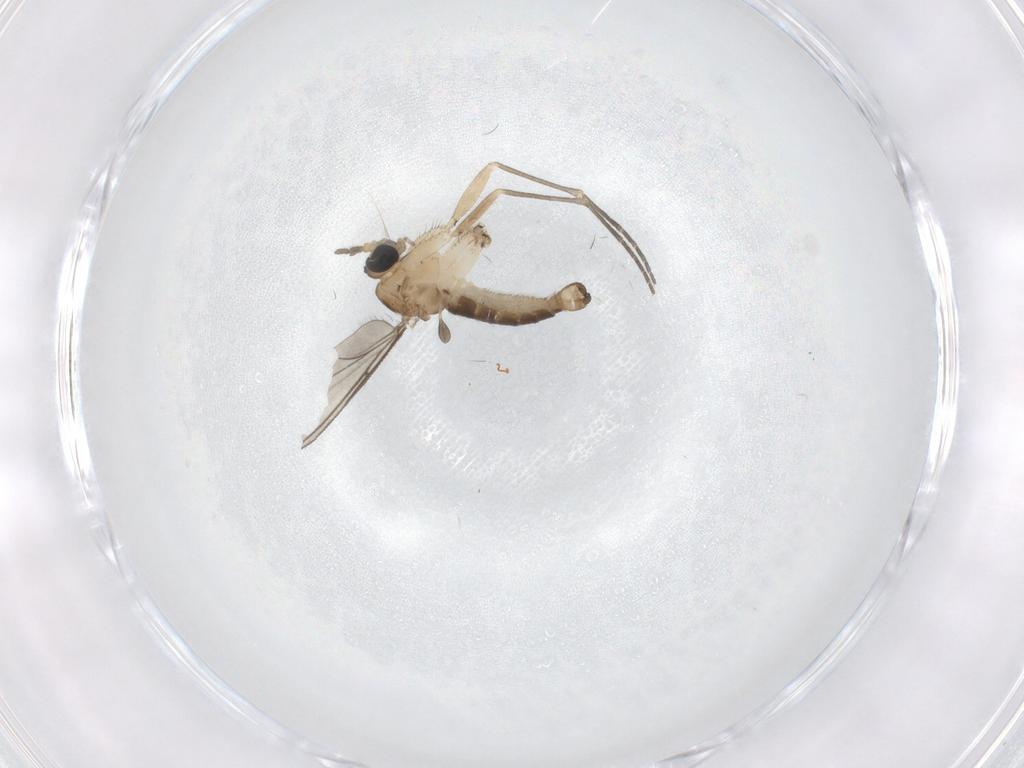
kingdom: Animalia
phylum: Arthropoda
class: Insecta
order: Diptera
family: Sciaridae
